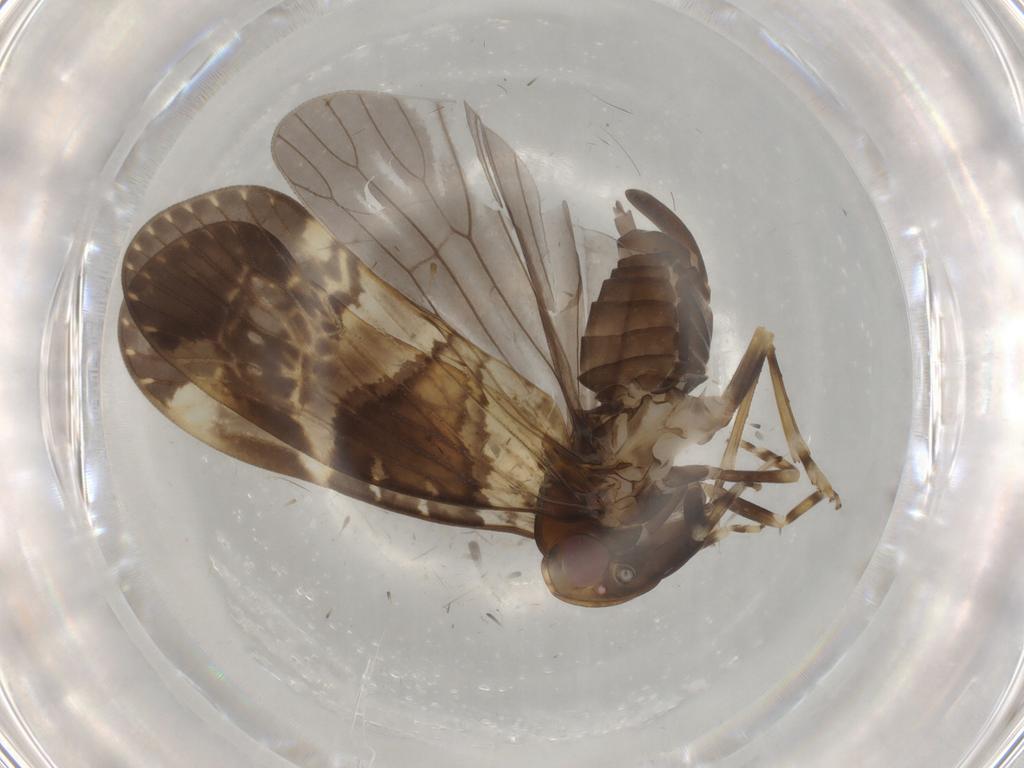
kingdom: Animalia
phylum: Arthropoda
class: Insecta
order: Hemiptera
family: Cixiidae
